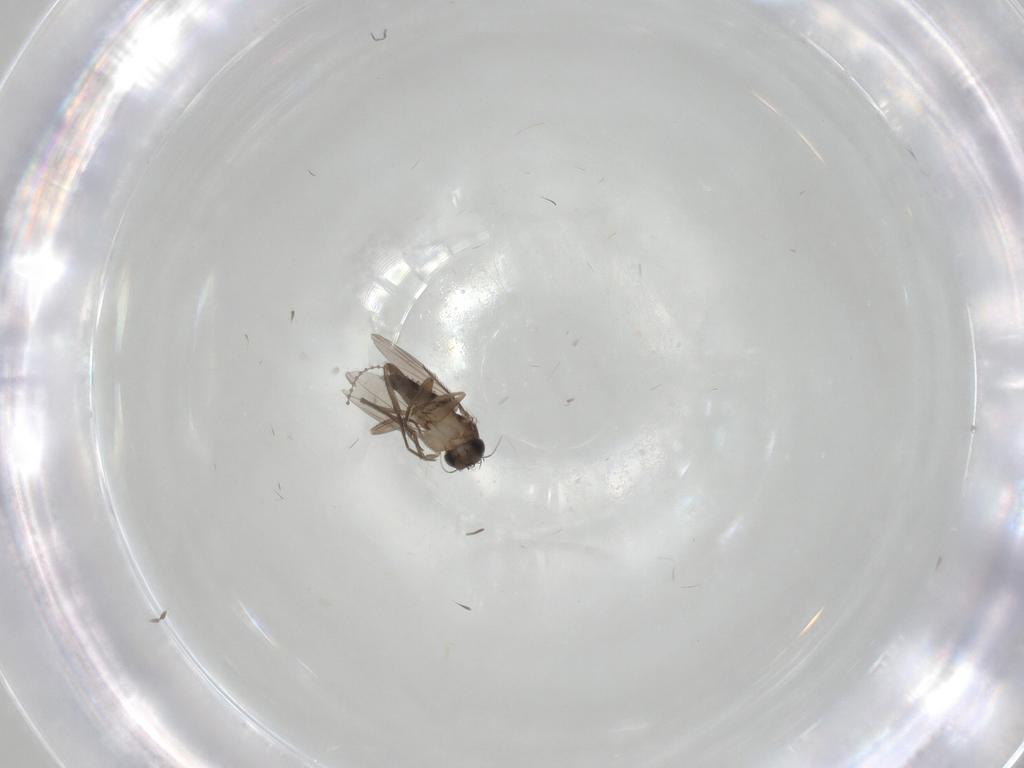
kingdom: Animalia
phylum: Arthropoda
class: Insecta
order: Diptera
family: Phoridae
